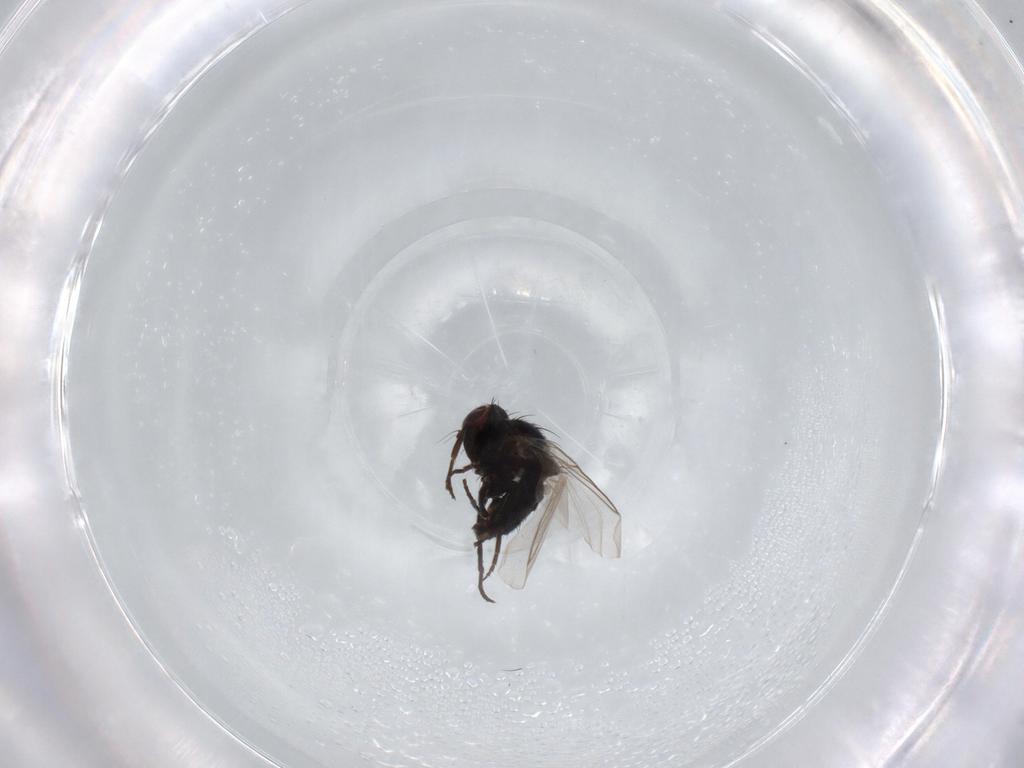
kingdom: Animalia
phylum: Arthropoda
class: Insecta
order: Diptera
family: Agromyzidae
